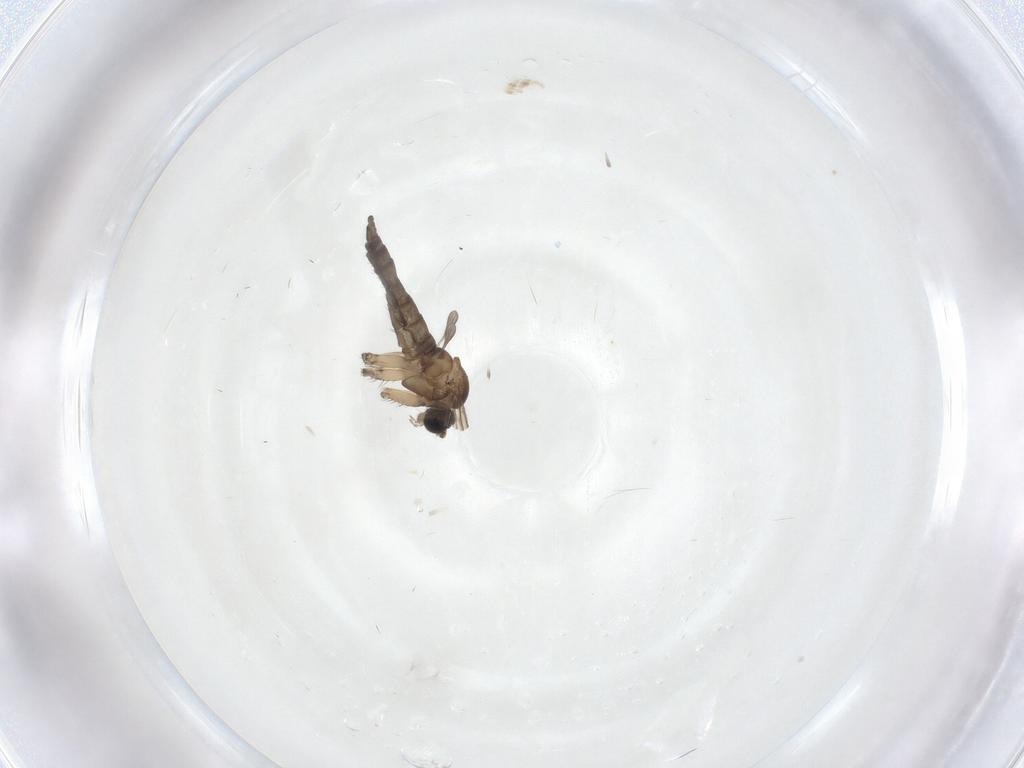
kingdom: Animalia
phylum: Arthropoda
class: Insecta
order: Diptera
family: Sciaridae
